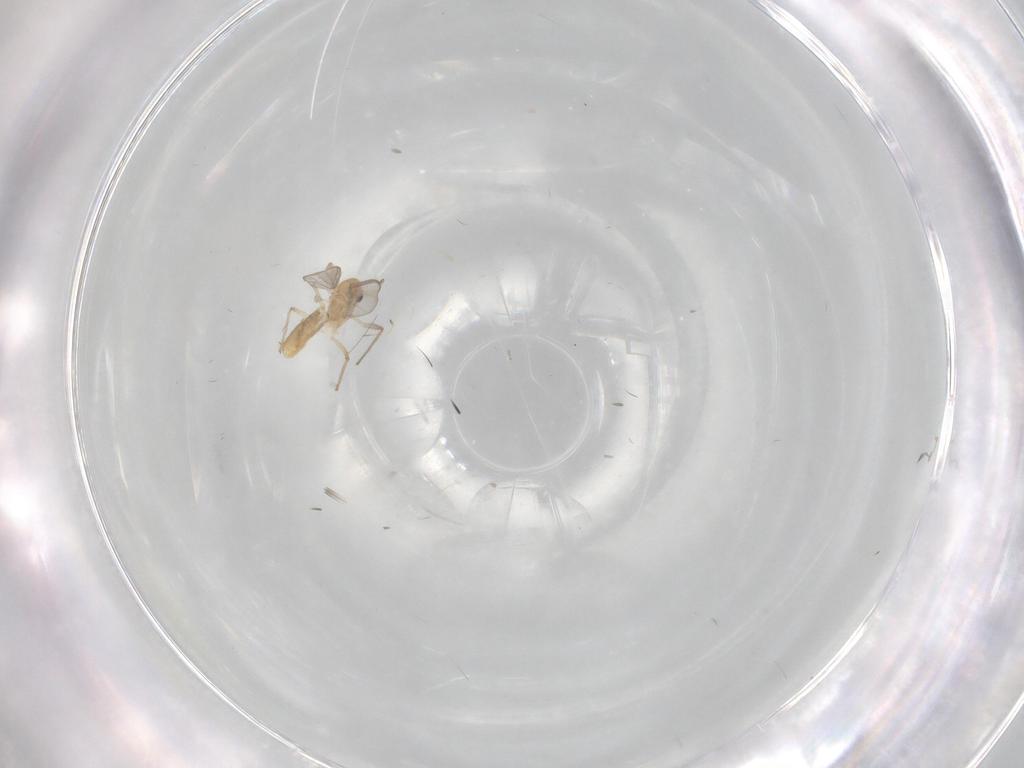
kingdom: Animalia
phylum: Arthropoda
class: Insecta
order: Diptera
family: Chironomidae
